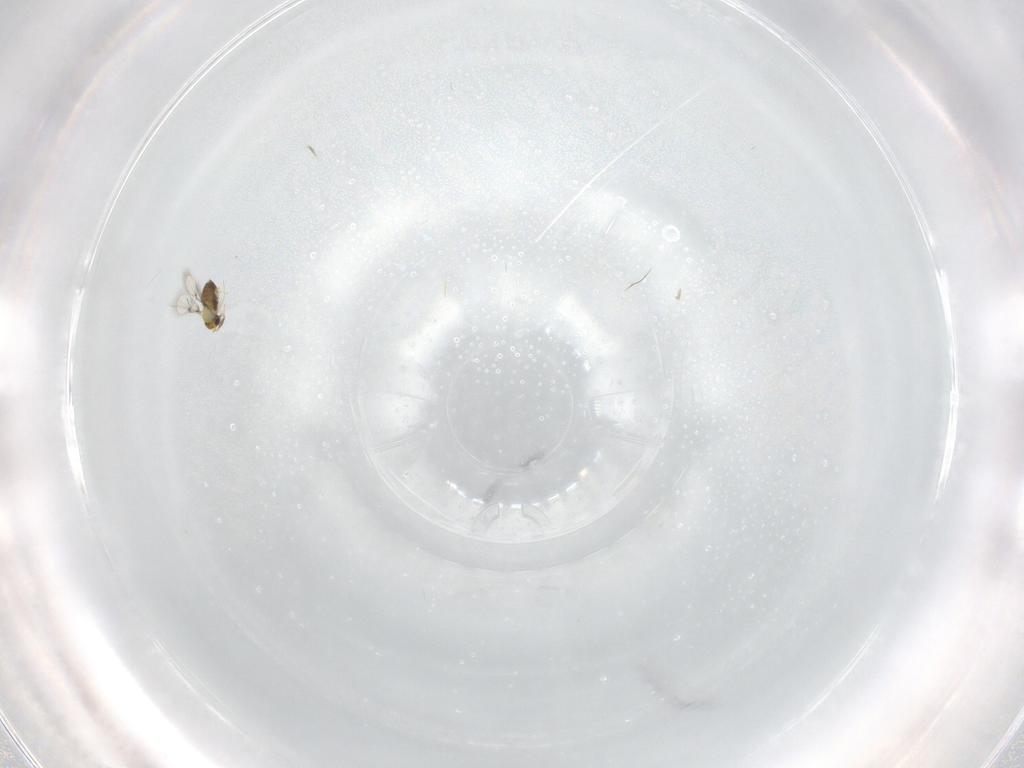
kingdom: Animalia
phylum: Arthropoda
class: Insecta
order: Hymenoptera
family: Trichogrammatidae
